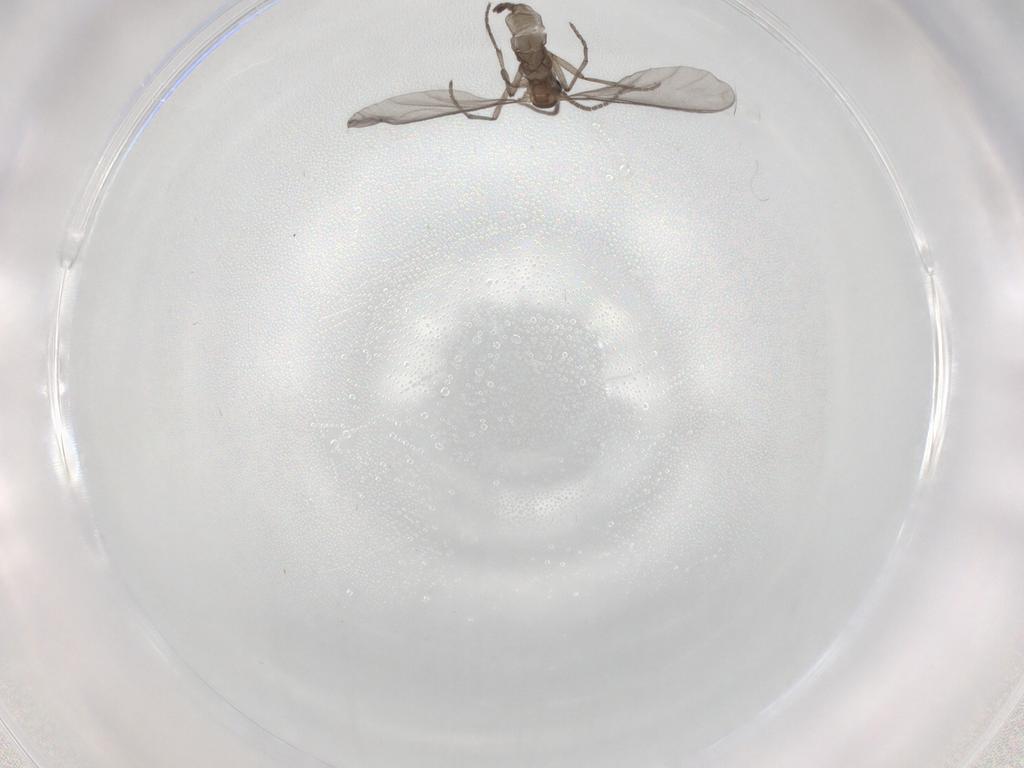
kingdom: Animalia
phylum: Arthropoda
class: Insecta
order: Diptera
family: Sciaridae
